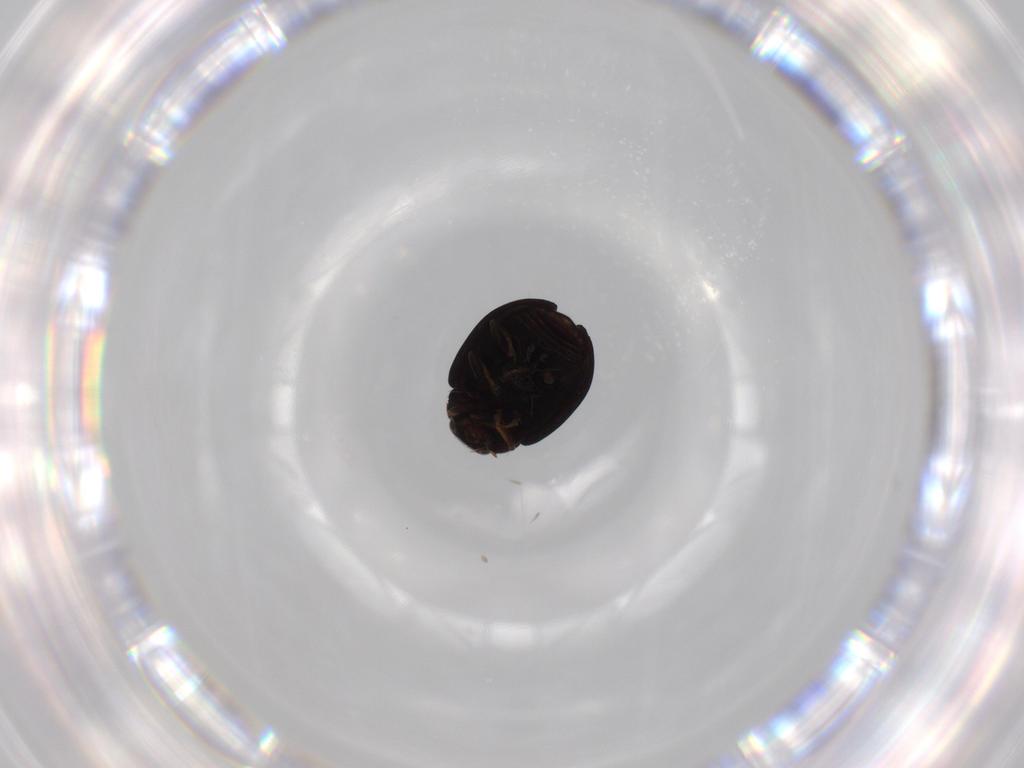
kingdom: Animalia
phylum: Arthropoda
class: Insecta
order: Coleoptera
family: Coccinellidae
